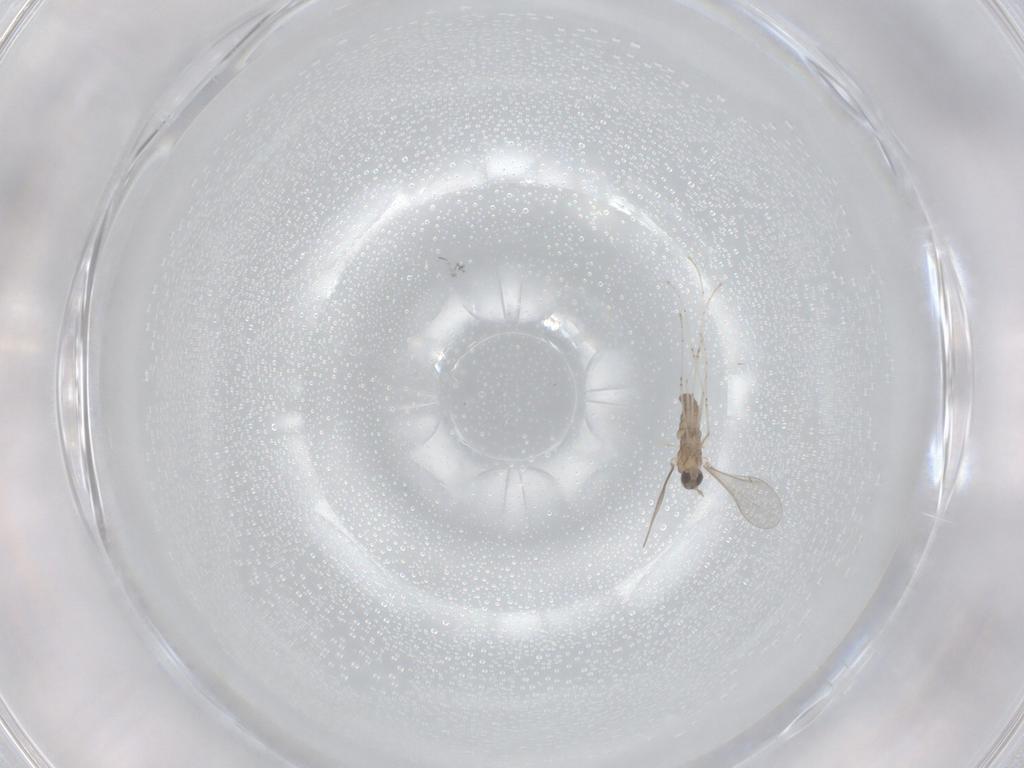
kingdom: Animalia
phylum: Arthropoda
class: Insecta
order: Diptera
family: Cecidomyiidae
